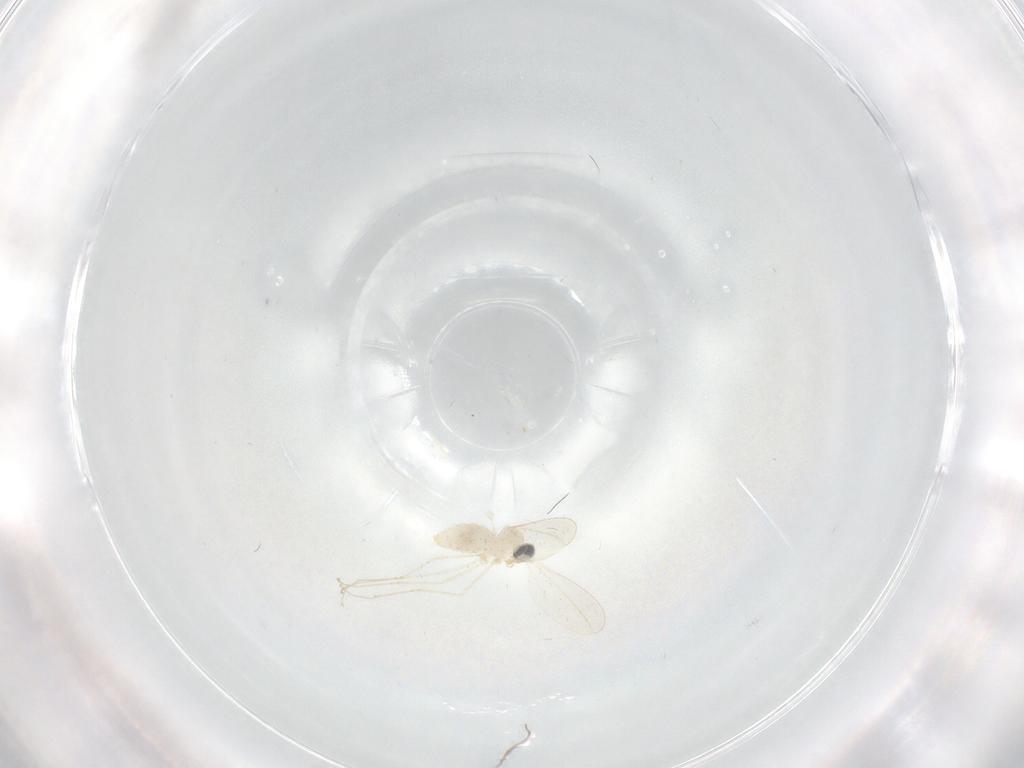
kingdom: Animalia
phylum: Arthropoda
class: Insecta
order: Diptera
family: Cecidomyiidae
